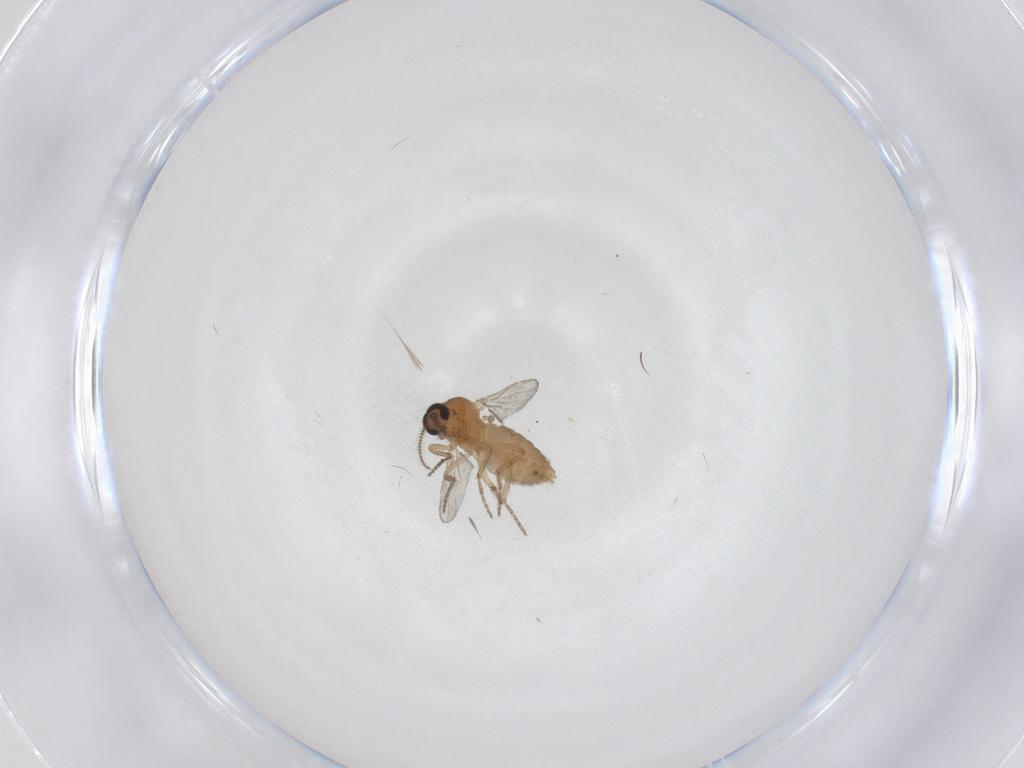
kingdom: Animalia
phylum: Arthropoda
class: Insecta
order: Diptera
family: Ceratopogonidae
